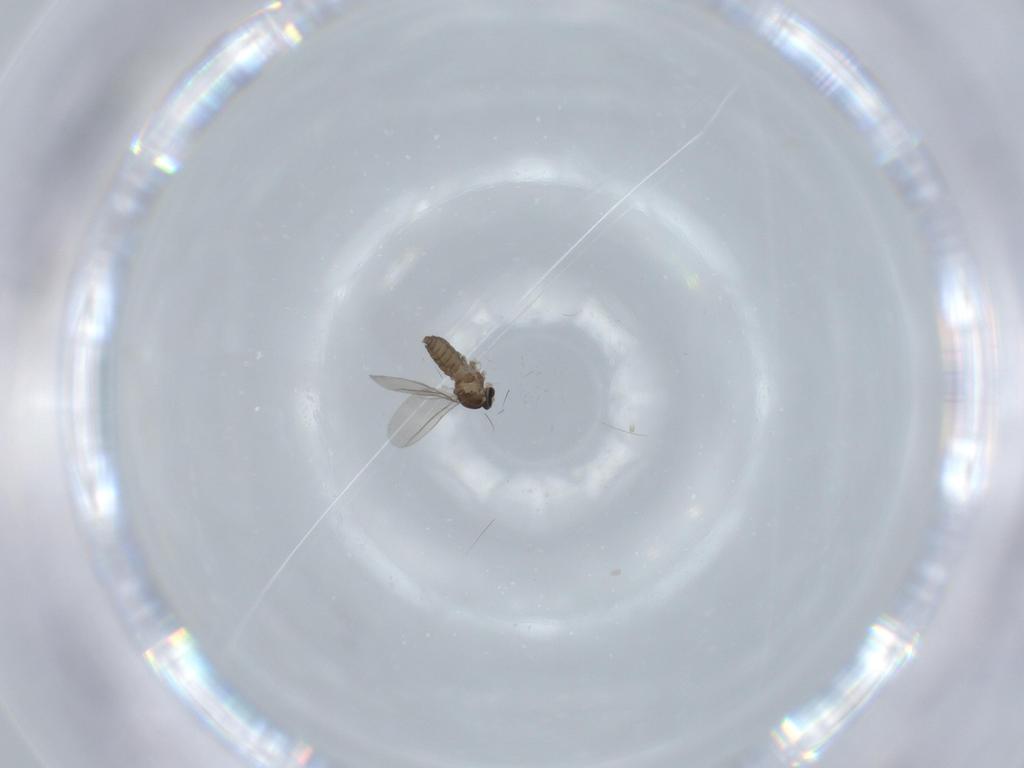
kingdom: Animalia
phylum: Arthropoda
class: Insecta
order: Diptera
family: Cecidomyiidae
